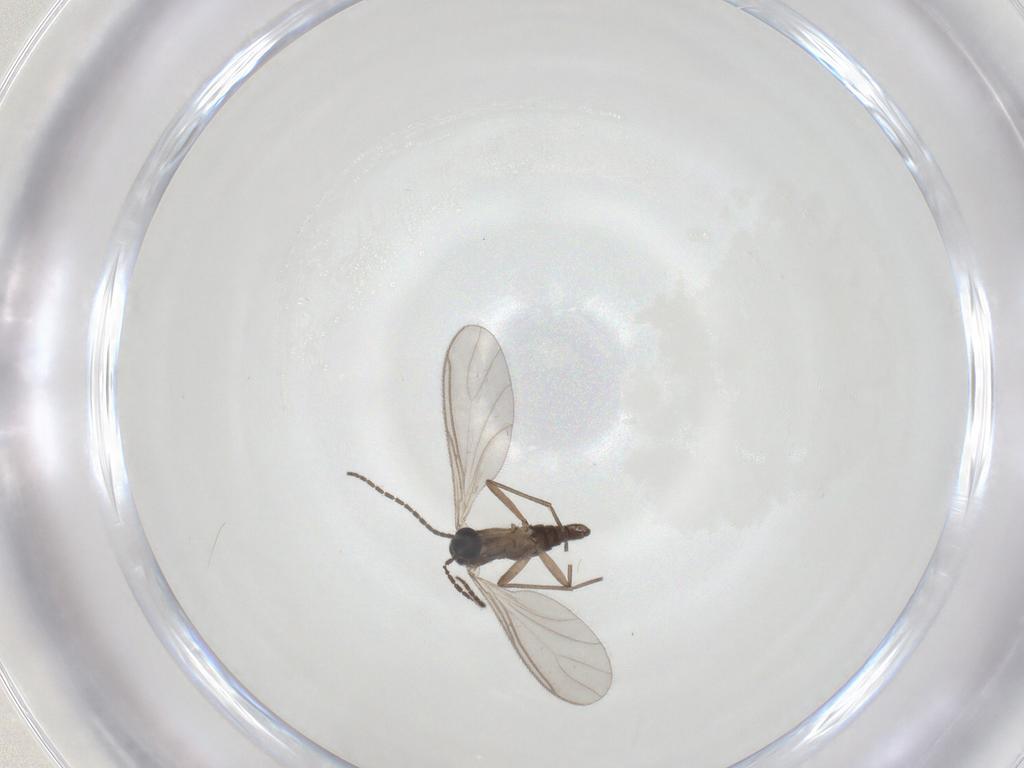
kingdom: Animalia
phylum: Arthropoda
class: Insecta
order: Diptera
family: Sciaridae
